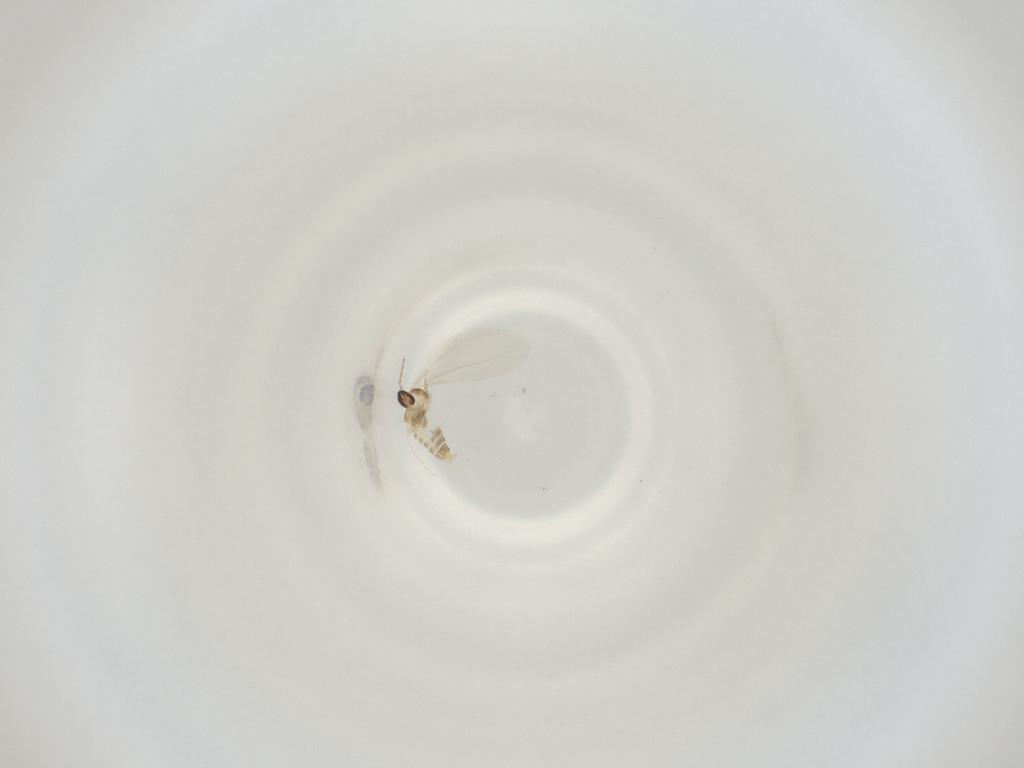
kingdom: Animalia
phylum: Arthropoda
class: Insecta
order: Diptera
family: Cecidomyiidae
